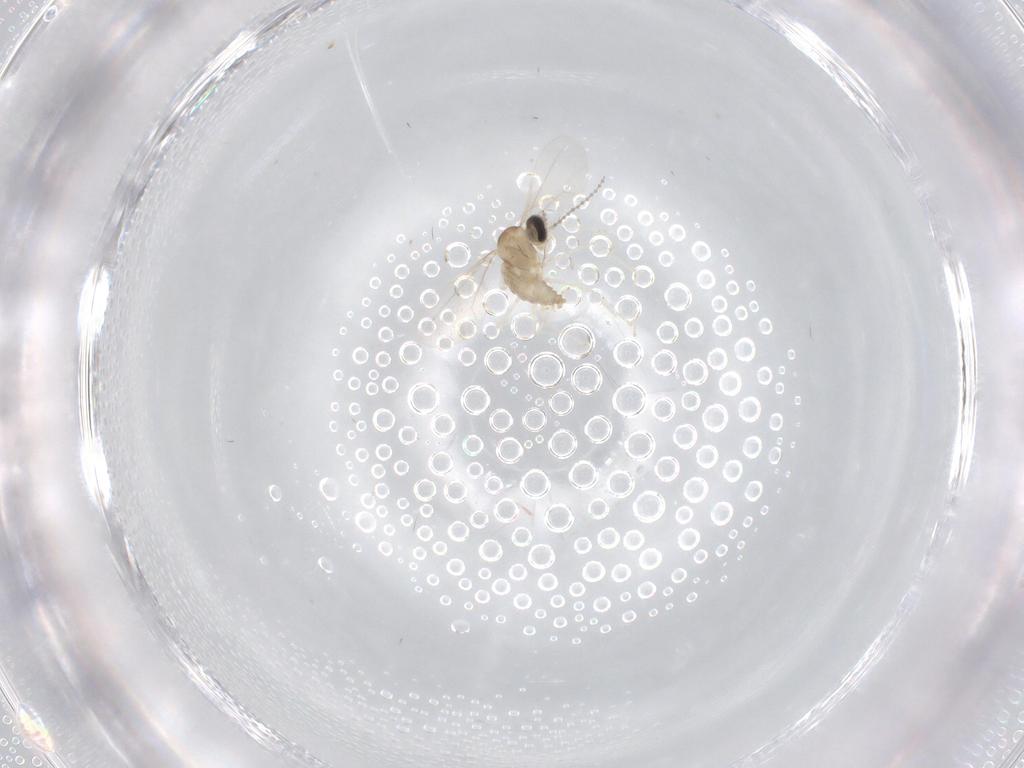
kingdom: Animalia
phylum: Arthropoda
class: Insecta
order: Diptera
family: Cecidomyiidae
